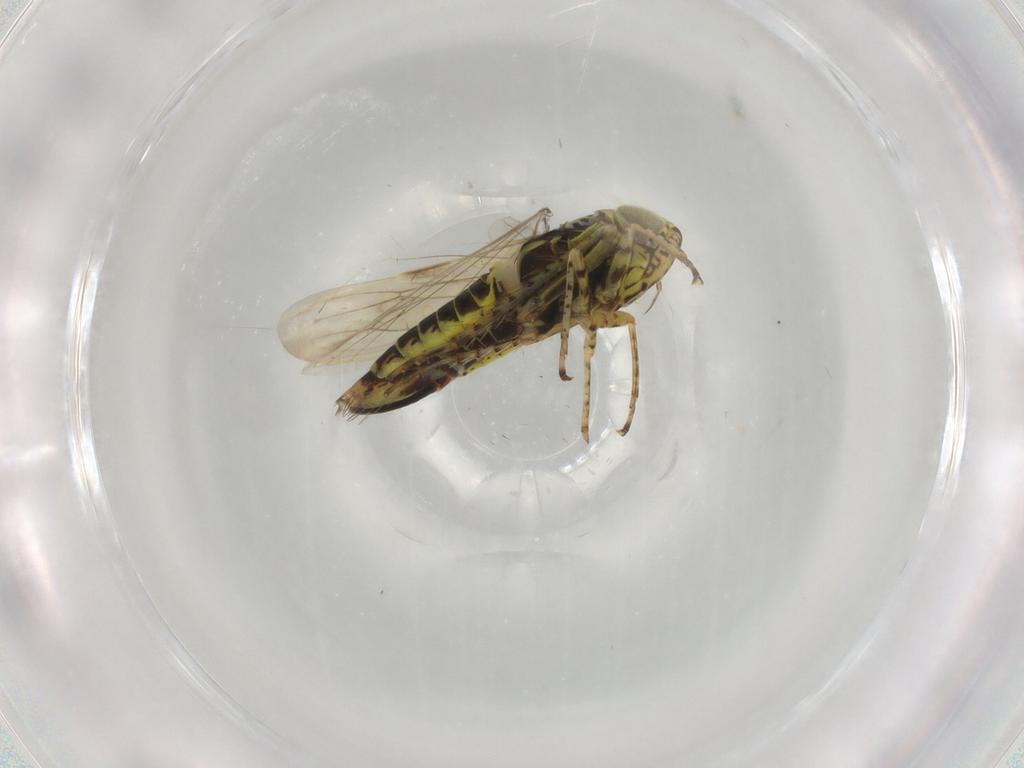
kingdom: Animalia
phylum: Arthropoda
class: Insecta
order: Hemiptera
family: Cicadellidae
